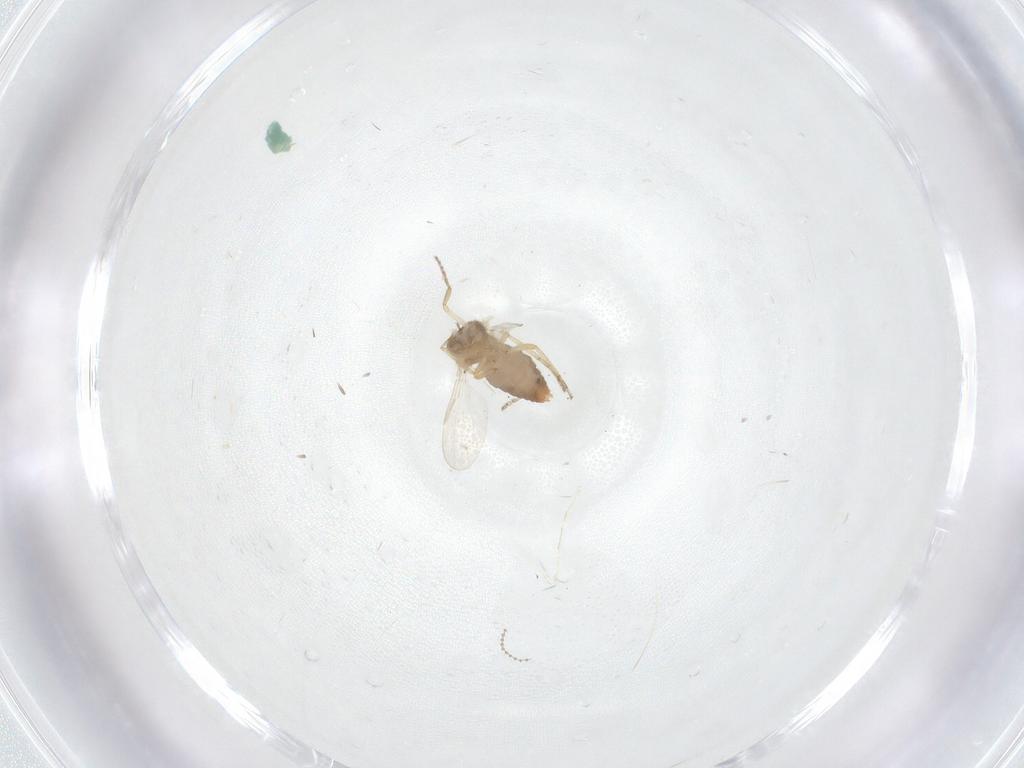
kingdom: Animalia
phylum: Arthropoda
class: Insecta
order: Diptera
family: Ceratopogonidae
